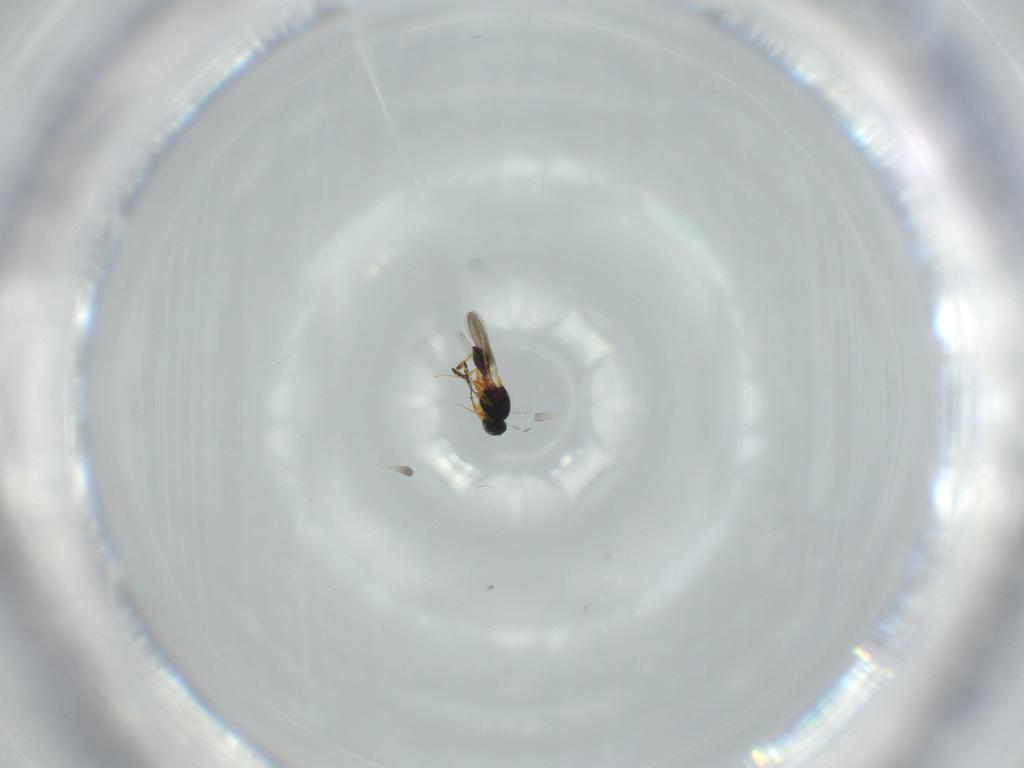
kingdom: Animalia
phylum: Arthropoda
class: Insecta
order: Hymenoptera
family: Platygastridae
